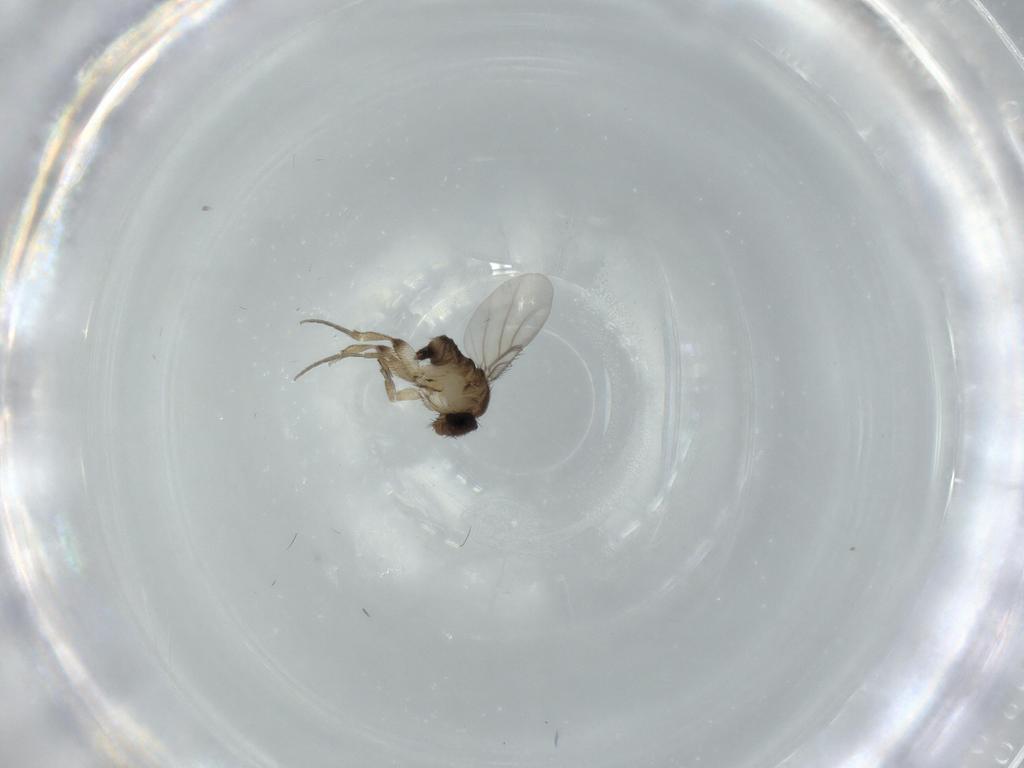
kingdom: Animalia
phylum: Arthropoda
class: Insecta
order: Diptera
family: Phoridae
